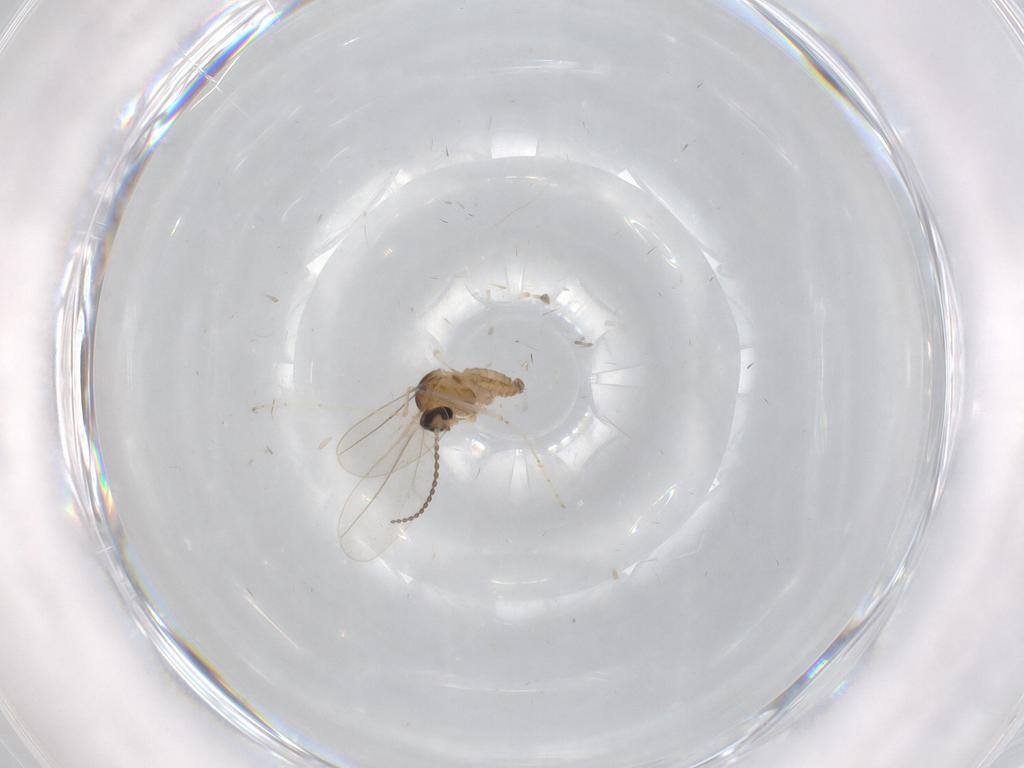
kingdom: Animalia
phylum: Arthropoda
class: Insecta
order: Diptera
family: Cecidomyiidae
